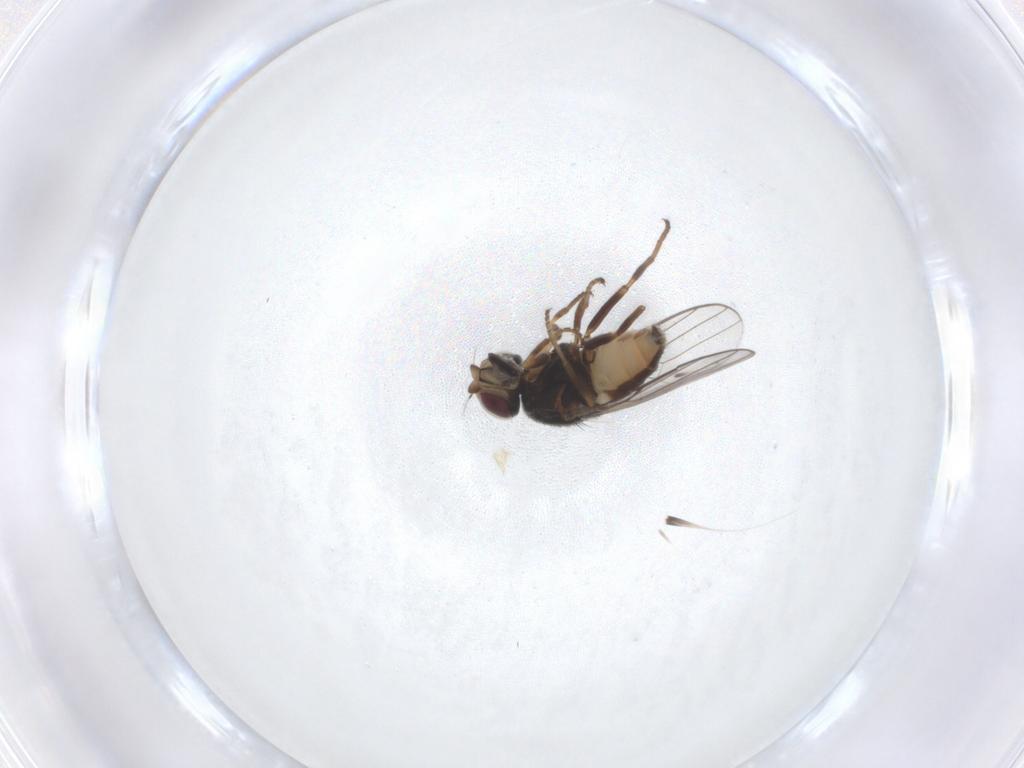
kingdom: Animalia
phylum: Arthropoda
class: Insecta
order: Diptera
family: Chloropidae
